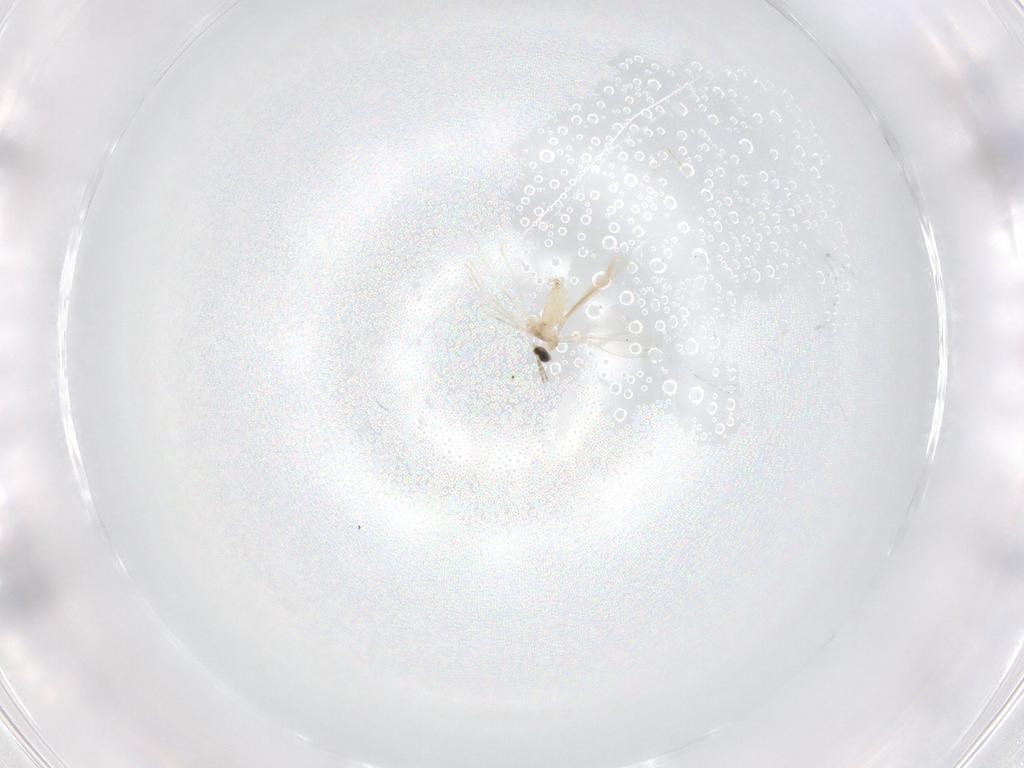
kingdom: Animalia
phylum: Arthropoda
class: Insecta
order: Diptera
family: Cecidomyiidae
